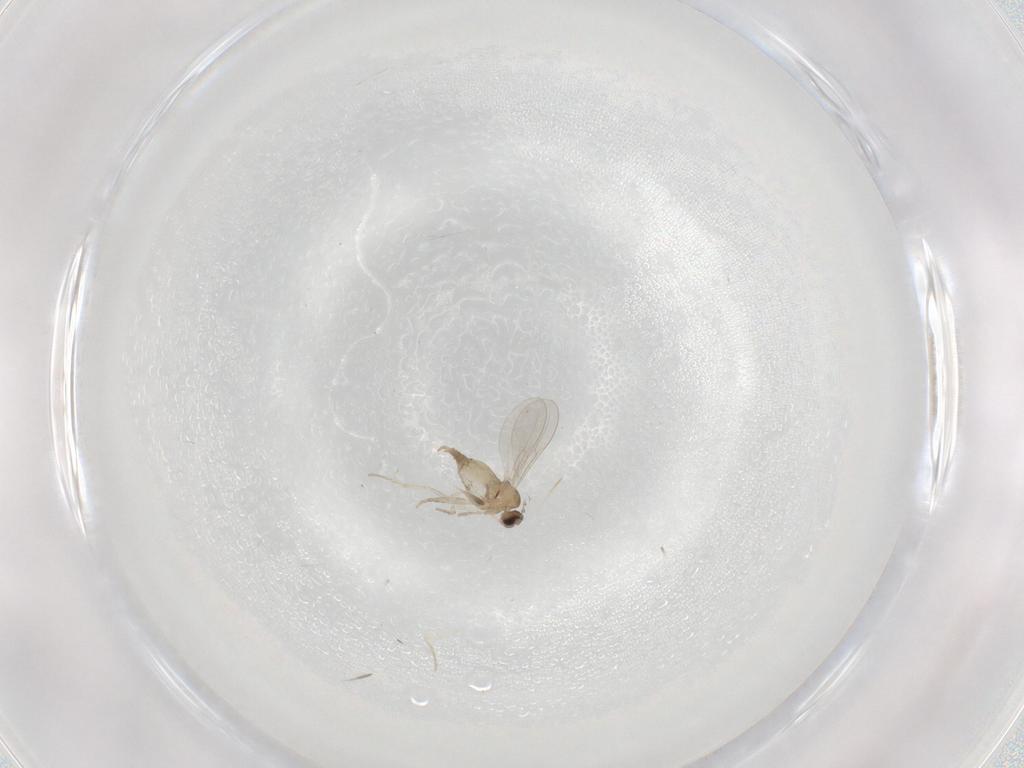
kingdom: Animalia
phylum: Arthropoda
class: Insecta
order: Diptera
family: Cecidomyiidae
